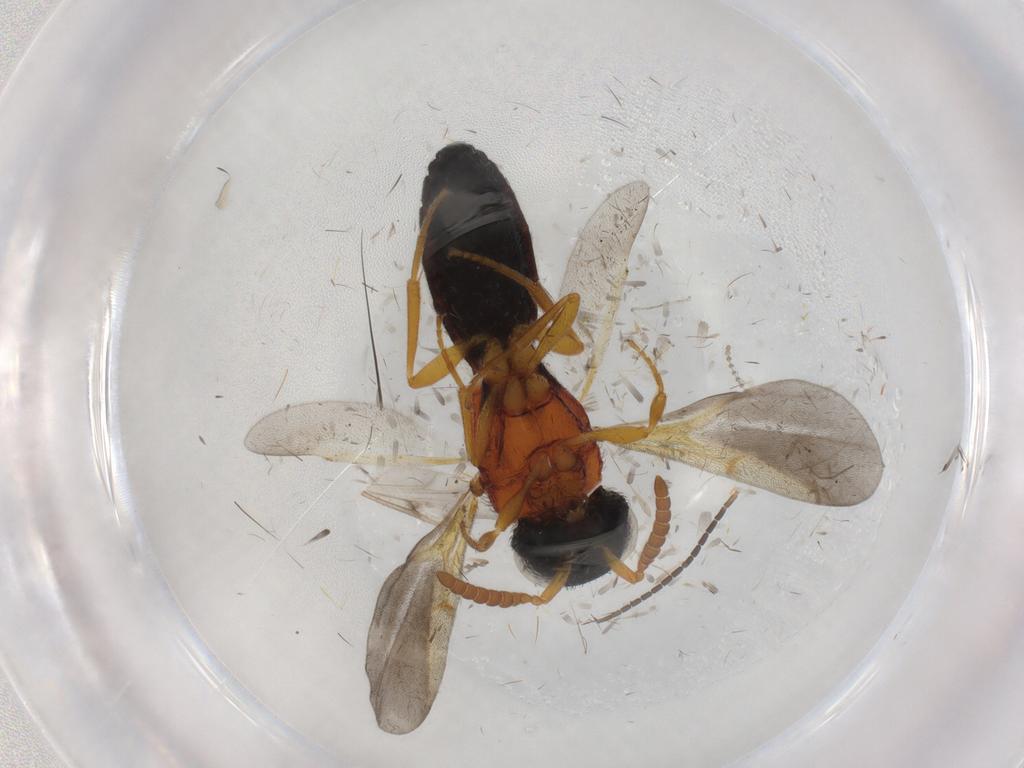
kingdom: Animalia
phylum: Arthropoda
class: Insecta
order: Hymenoptera
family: Scelionidae
